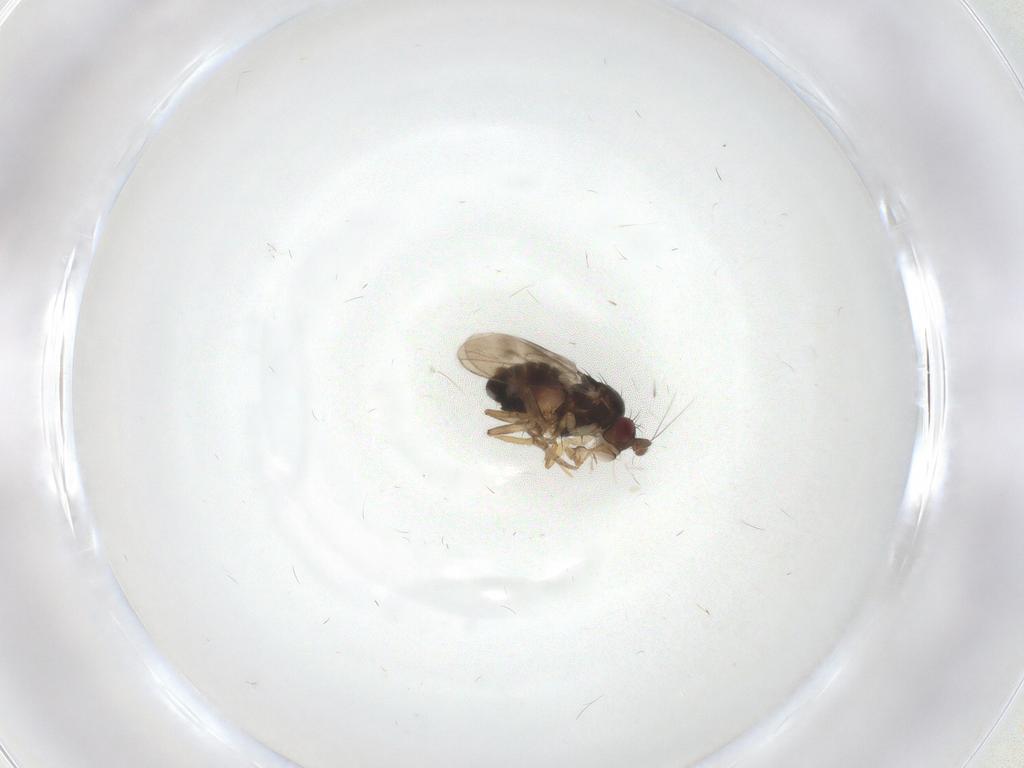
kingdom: Animalia
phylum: Arthropoda
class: Insecta
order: Diptera
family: Sphaeroceridae
